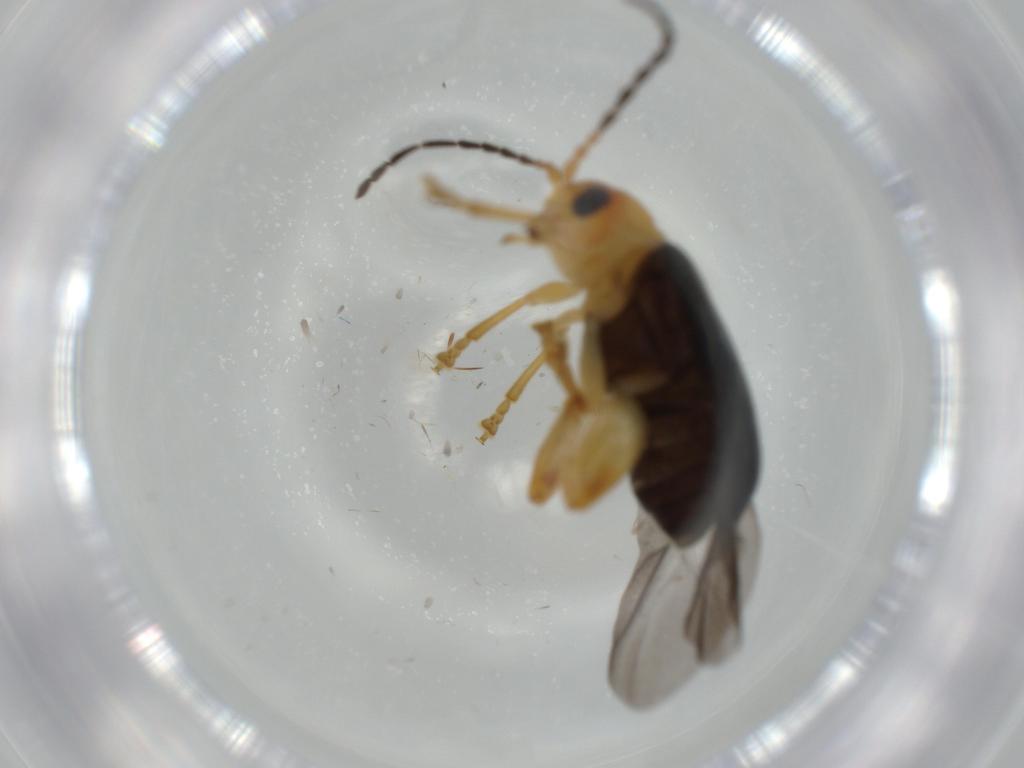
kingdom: Animalia
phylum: Arthropoda
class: Insecta
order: Coleoptera
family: Chrysomelidae
